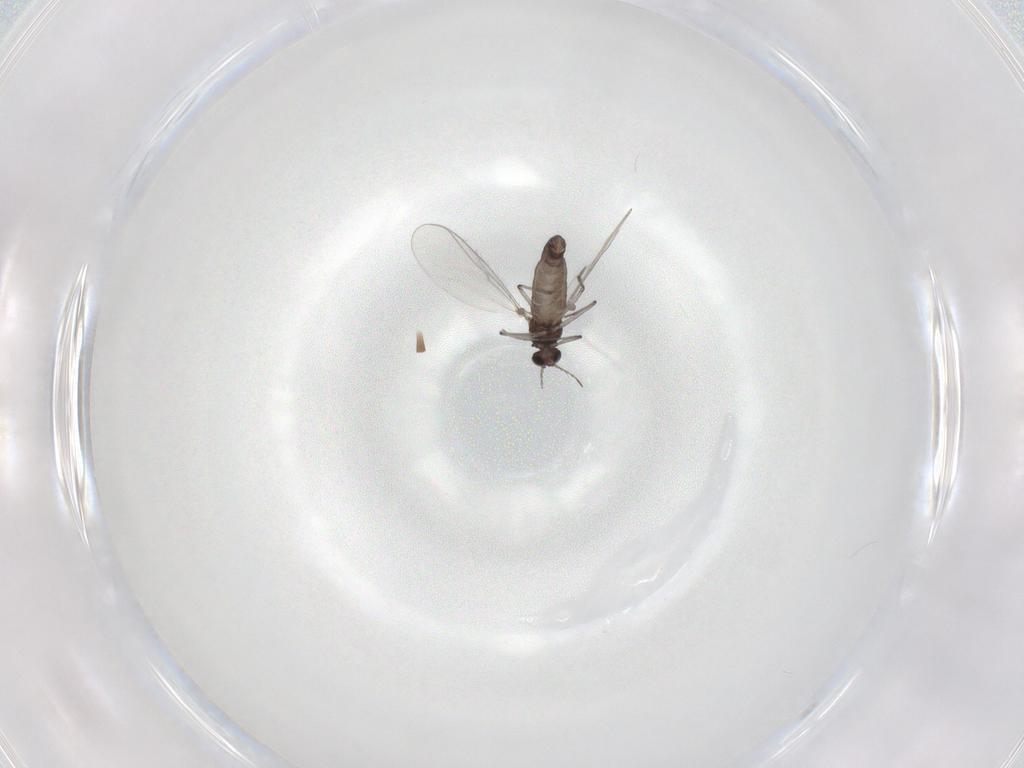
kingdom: Animalia
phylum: Arthropoda
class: Insecta
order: Diptera
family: Chironomidae
